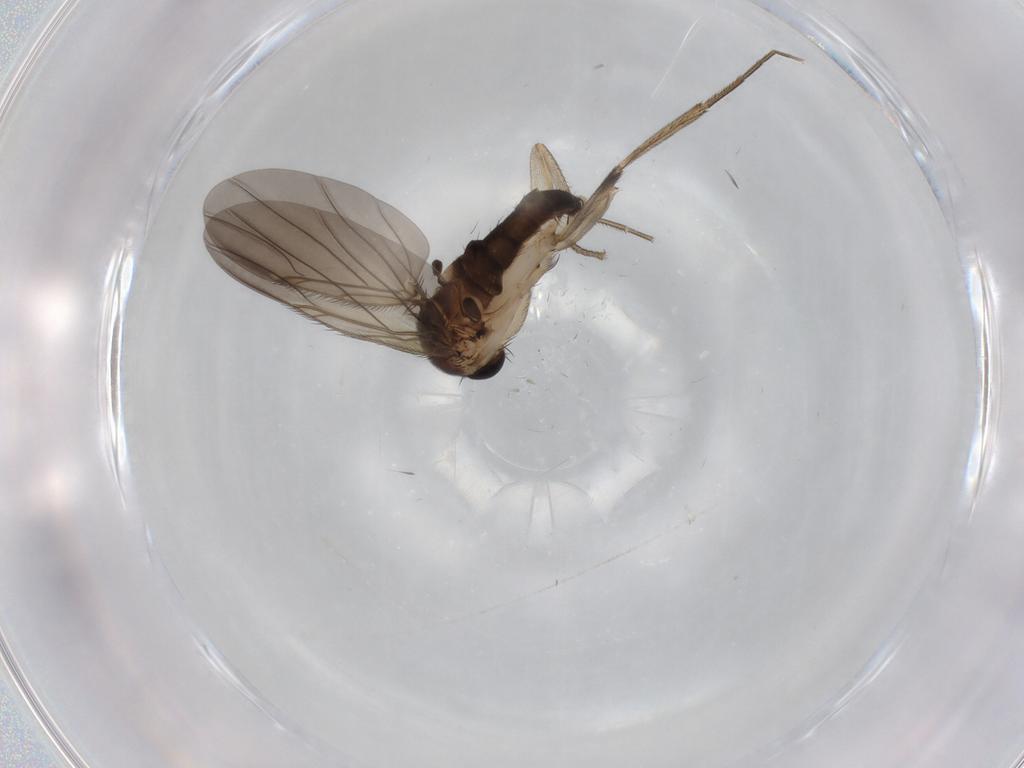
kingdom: Animalia
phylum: Arthropoda
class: Insecta
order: Diptera
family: Phoridae
